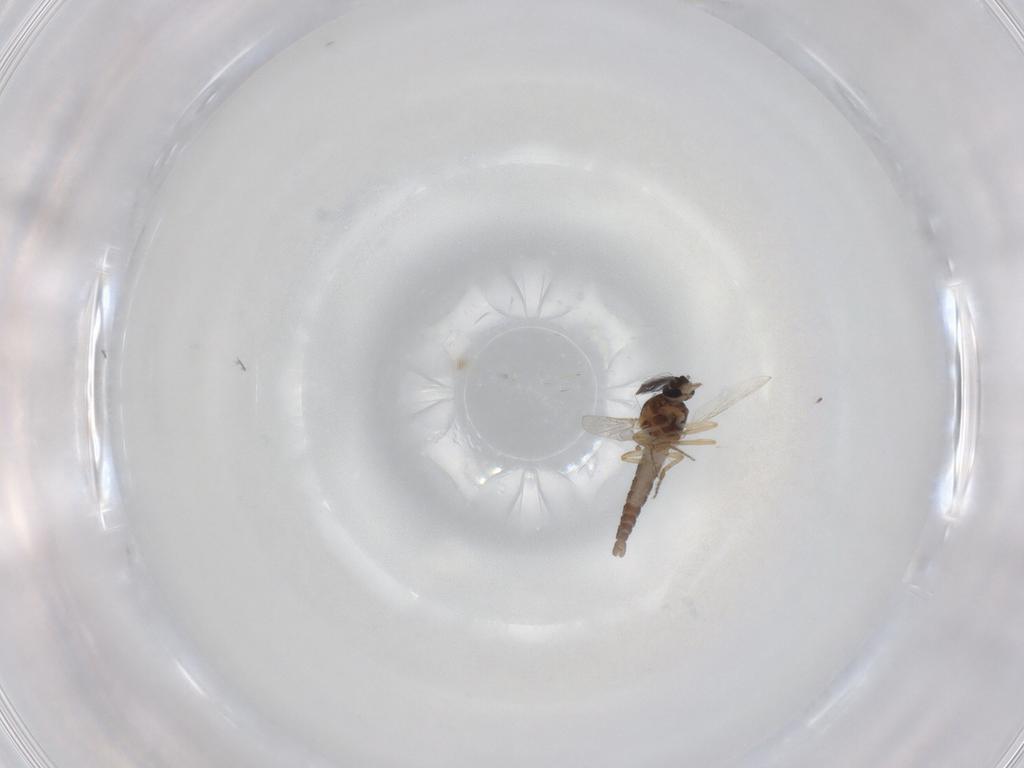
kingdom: Animalia
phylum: Arthropoda
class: Insecta
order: Diptera
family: Ceratopogonidae
